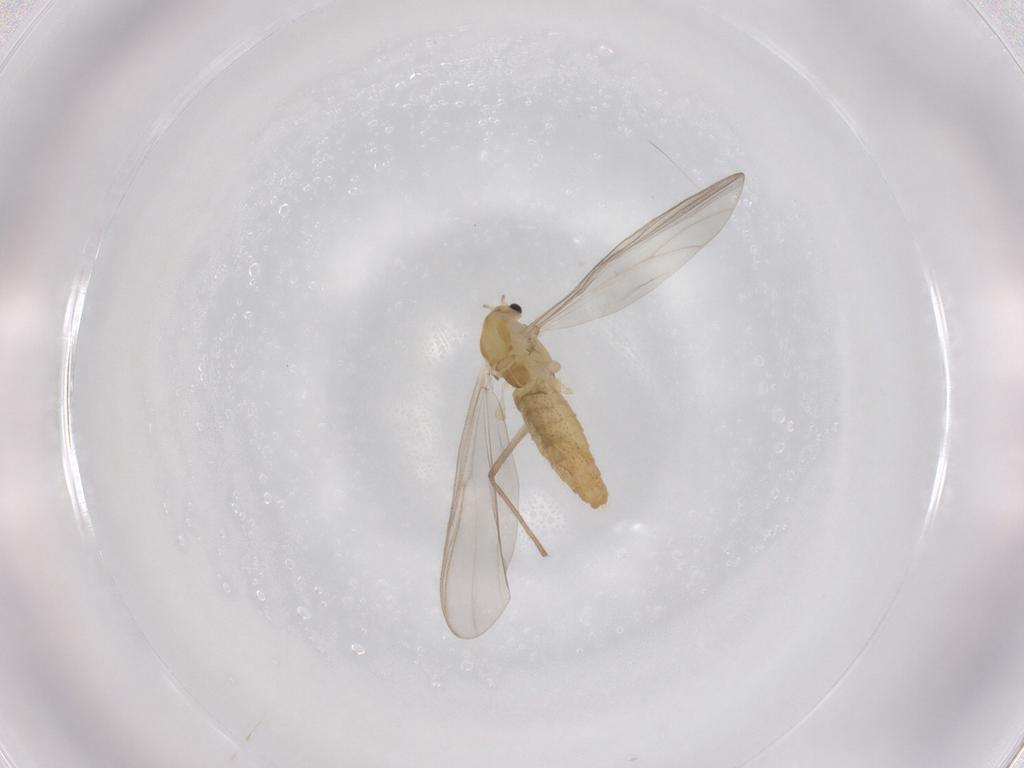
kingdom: Animalia
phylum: Arthropoda
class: Insecta
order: Diptera
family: Chironomidae
